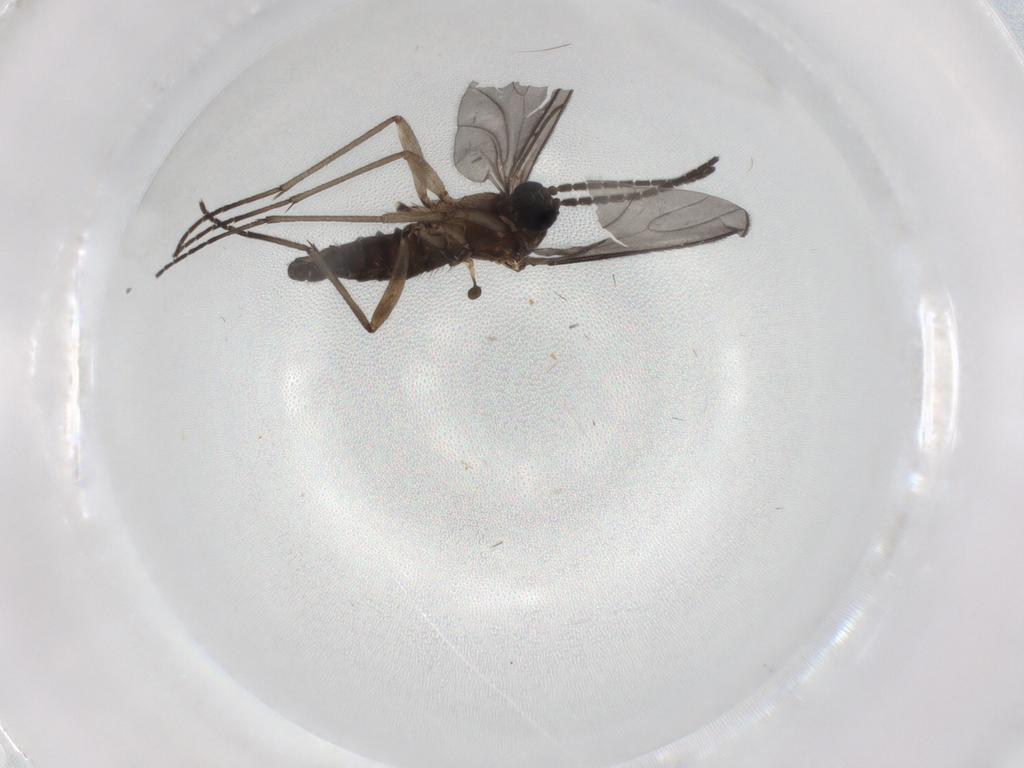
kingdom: Animalia
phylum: Arthropoda
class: Insecta
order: Diptera
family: Sciaridae
